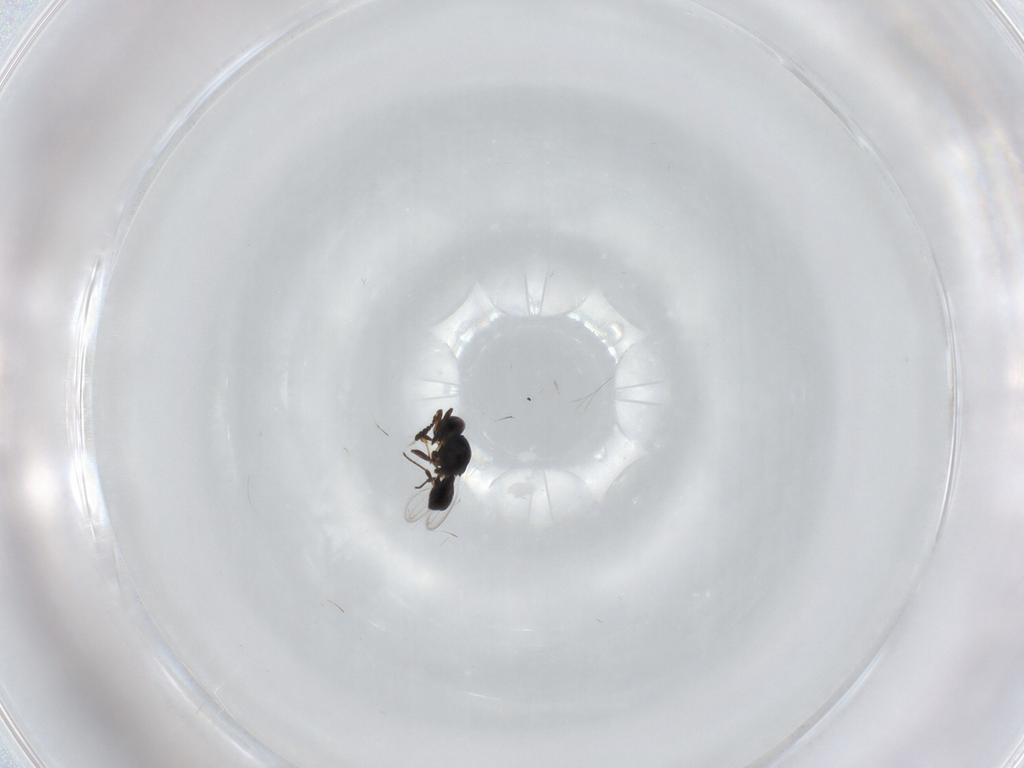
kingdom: Animalia
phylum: Arthropoda
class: Insecta
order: Hymenoptera
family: Platygastridae
